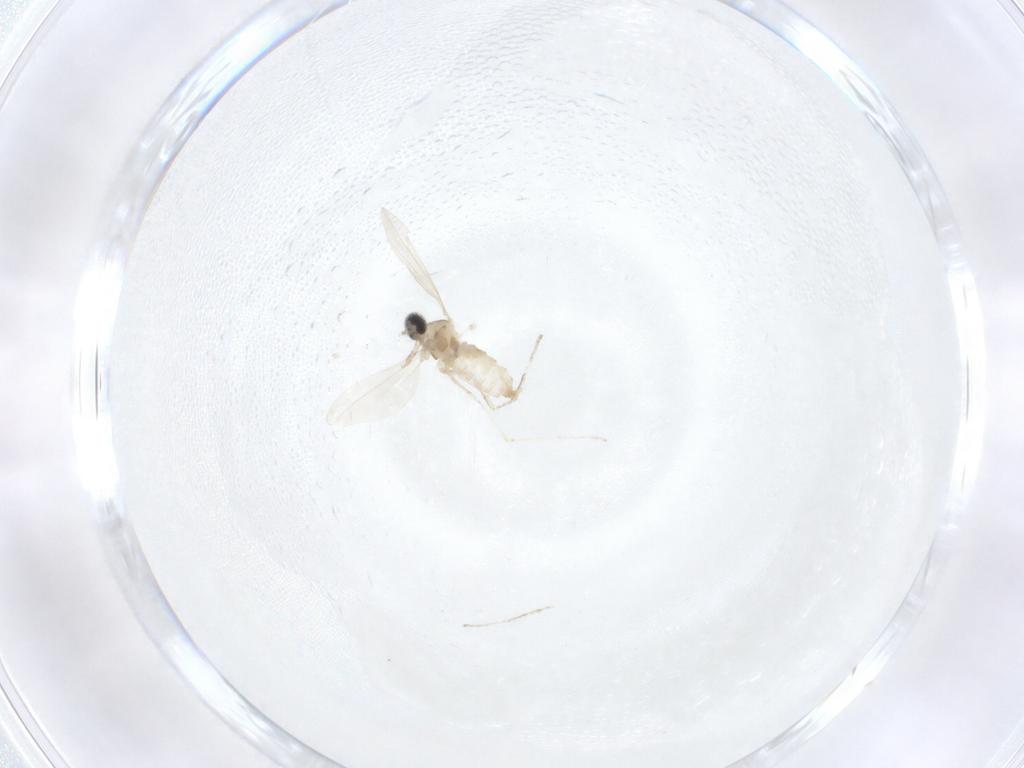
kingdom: Animalia
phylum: Arthropoda
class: Insecta
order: Diptera
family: Cecidomyiidae
